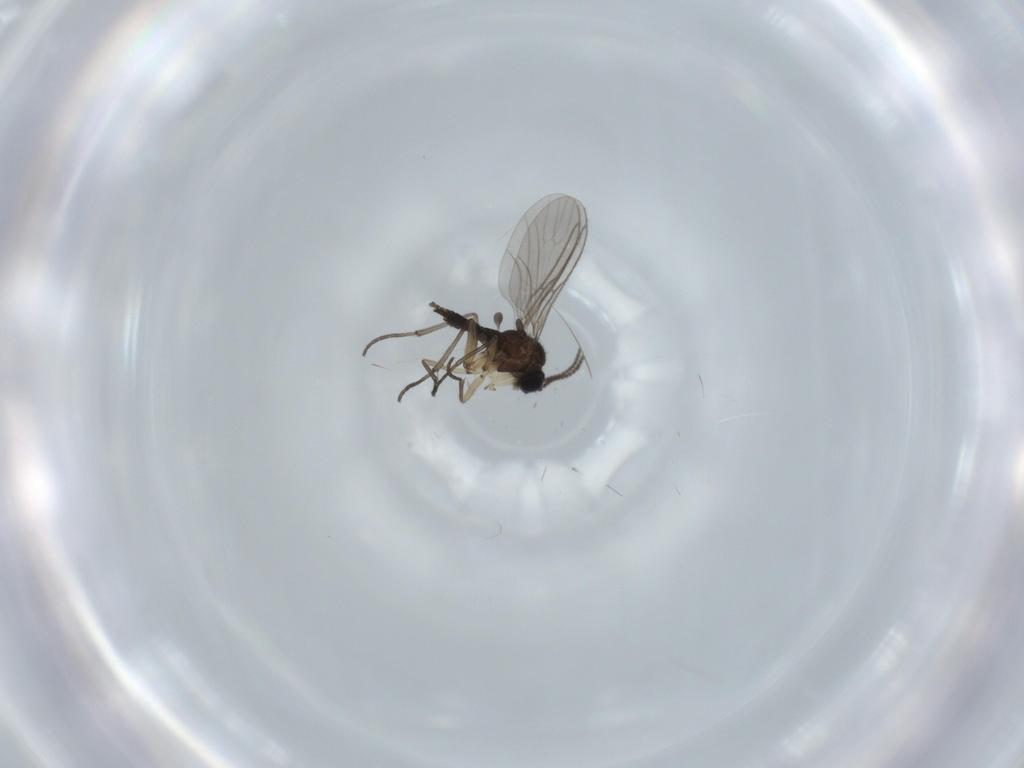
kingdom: Animalia
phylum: Arthropoda
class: Insecta
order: Diptera
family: Sciaridae
